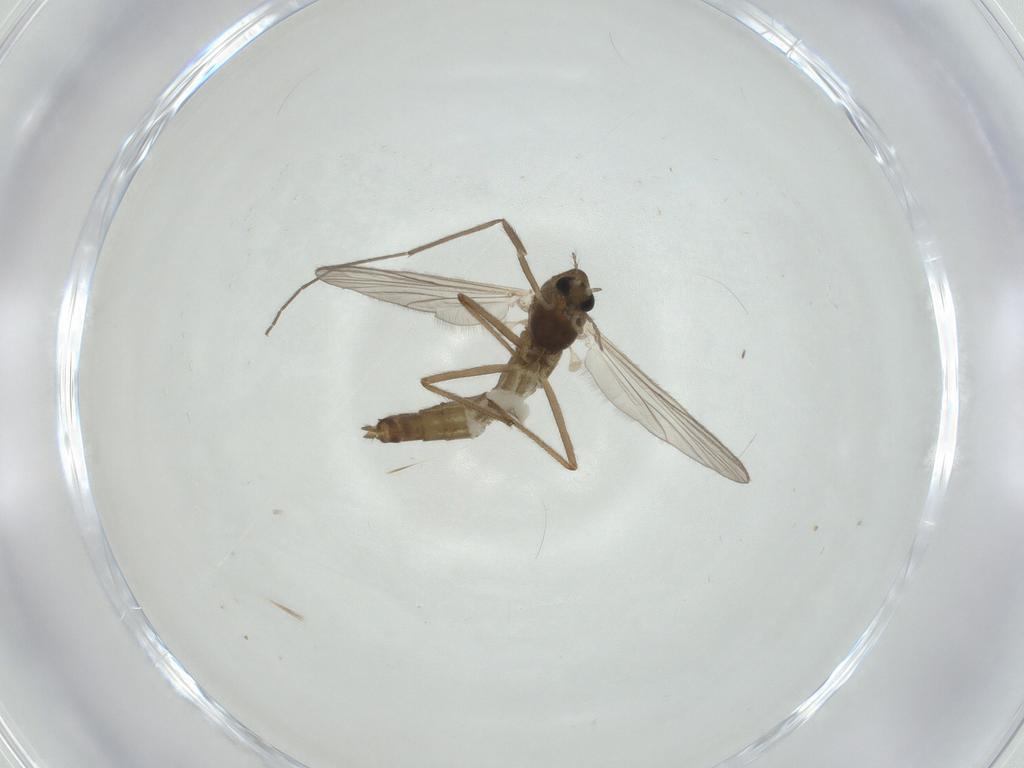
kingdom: Animalia
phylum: Arthropoda
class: Insecta
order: Diptera
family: Chironomidae
